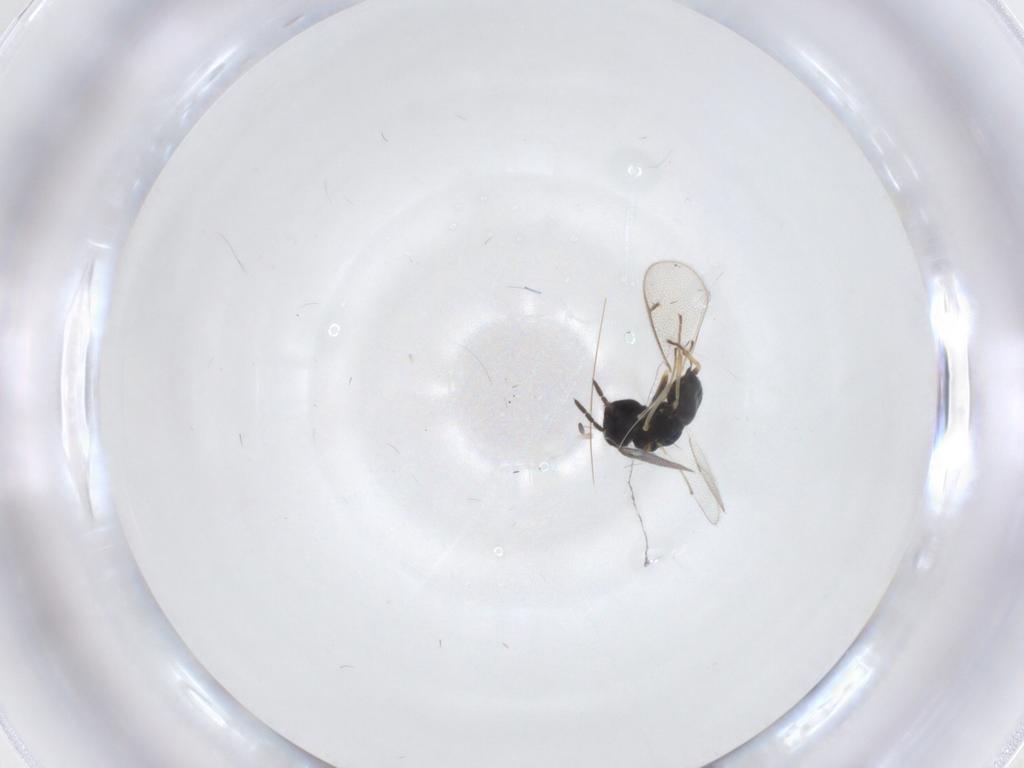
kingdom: Animalia
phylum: Arthropoda
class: Insecta
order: Hymenoptera
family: Eulophidae
